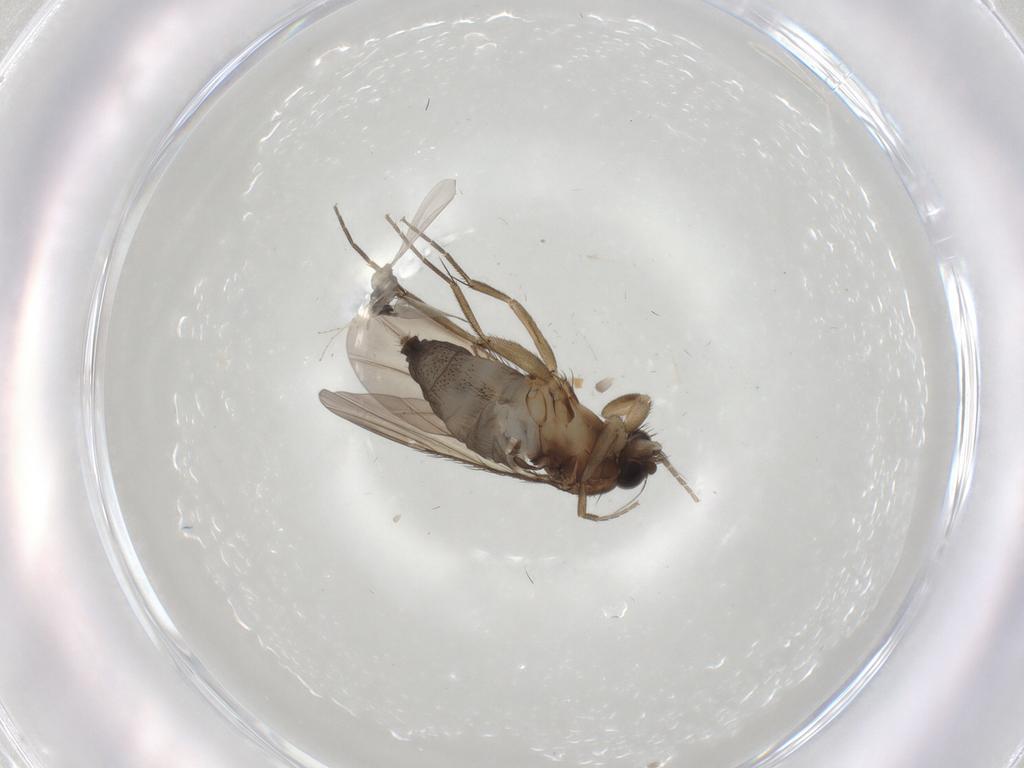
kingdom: Animalia
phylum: Arthropoda
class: Insecta
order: Diptera
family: Phoridae
